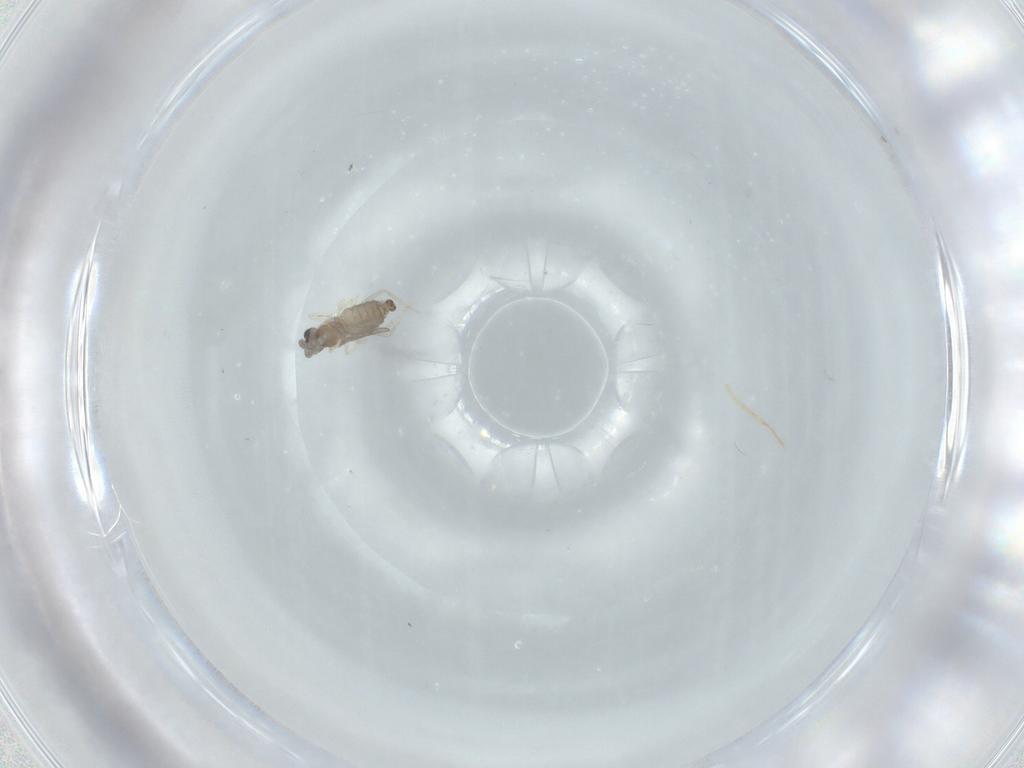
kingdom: Animalia
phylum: Arthropoda
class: Insecta
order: Diptera
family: Cecidomyiidae
